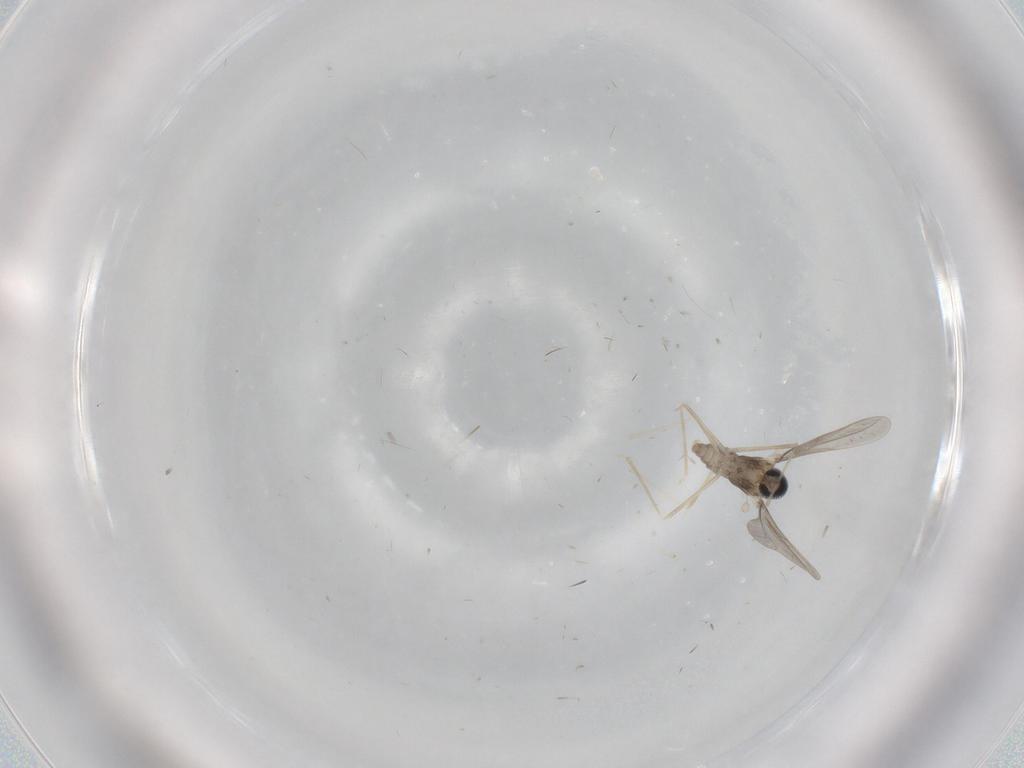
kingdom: Animalia
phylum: Arthropoda
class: Insecta
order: Diptera
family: Cecidomyiidae
